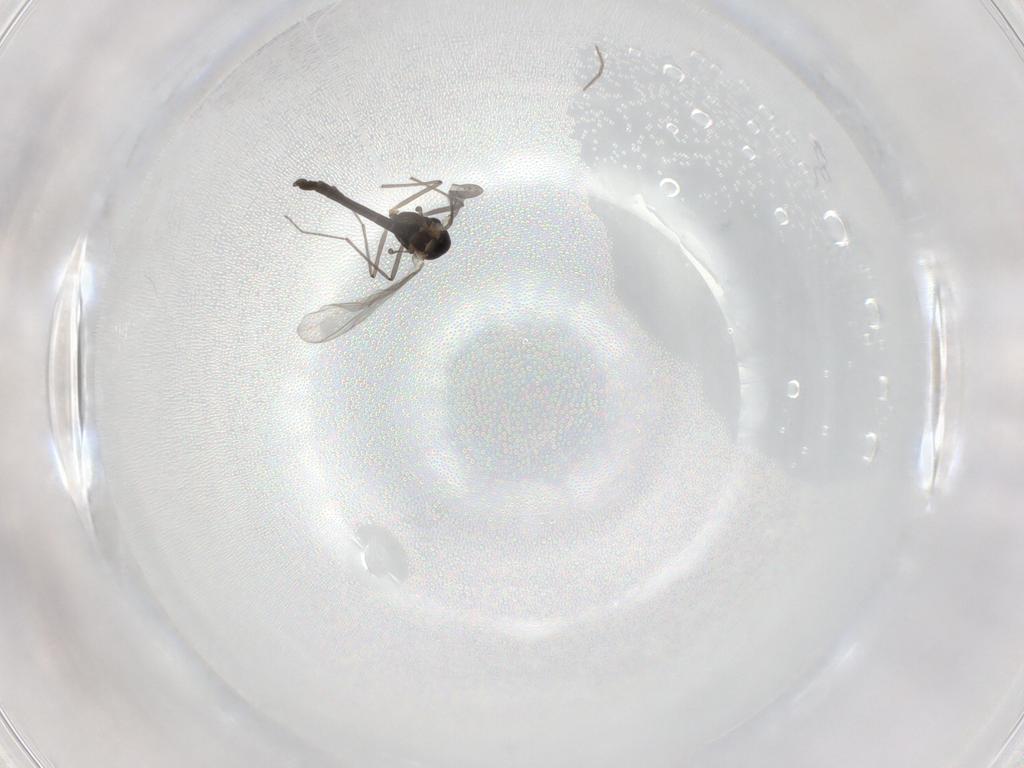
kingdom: Animalia
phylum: Arthropoda
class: Insecta
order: Diptera
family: Chironomidae
